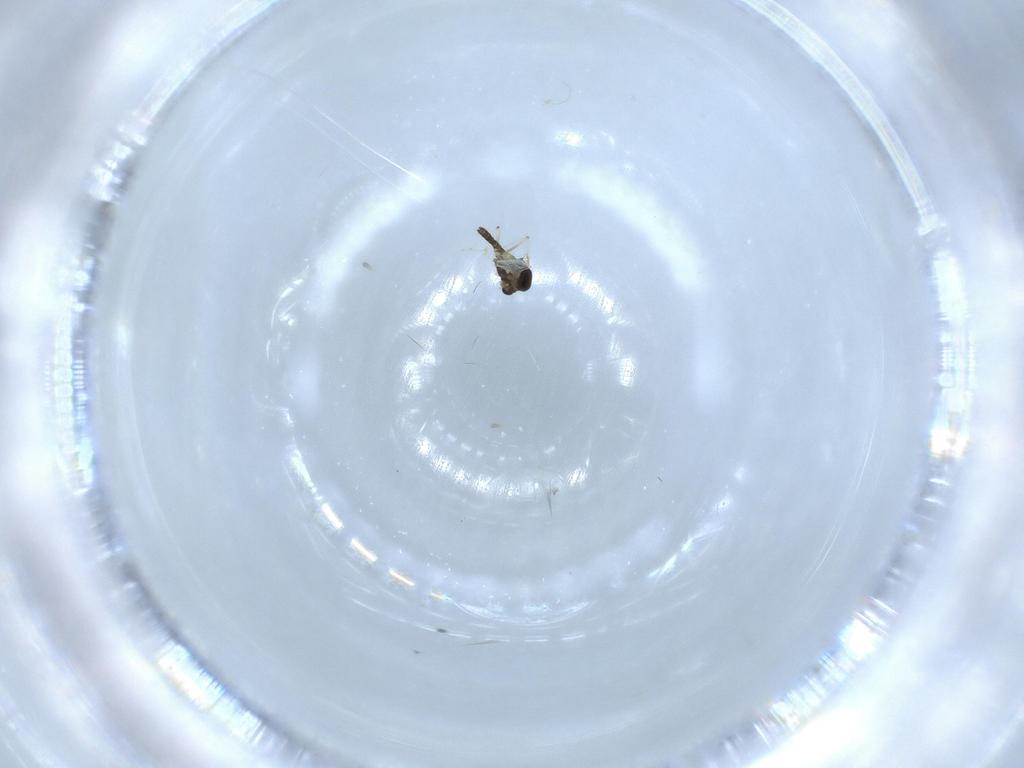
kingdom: Animalia
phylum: Arthropoda
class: Insecta
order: Diptera
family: Chironomidae
